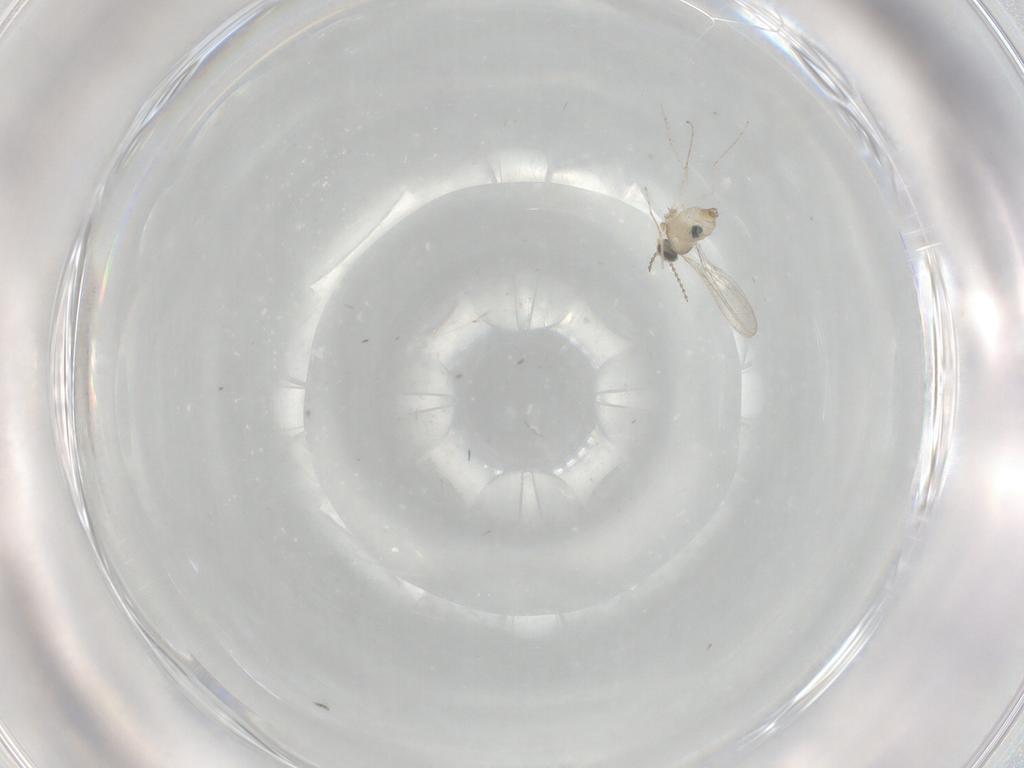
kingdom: Animalia
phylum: Arthropoda
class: Insecta
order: Diptera
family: Cecidomyiidae
